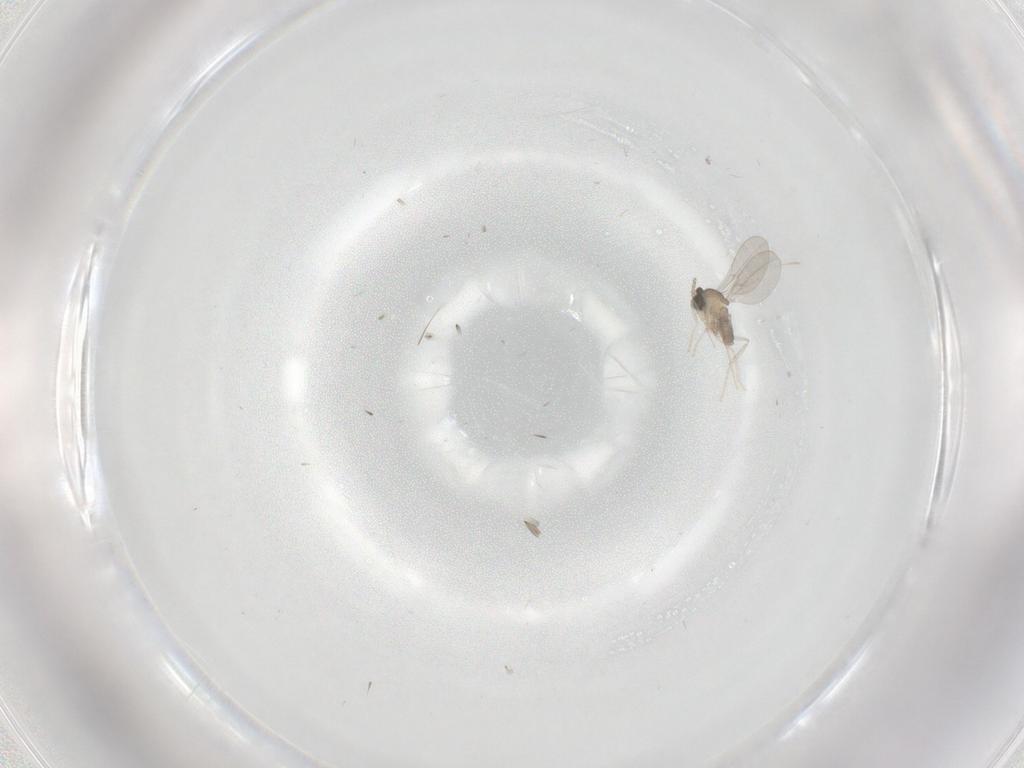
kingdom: Animalia
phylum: Arthropoda
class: Insecta
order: Diptera
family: Cecidomyiidae
